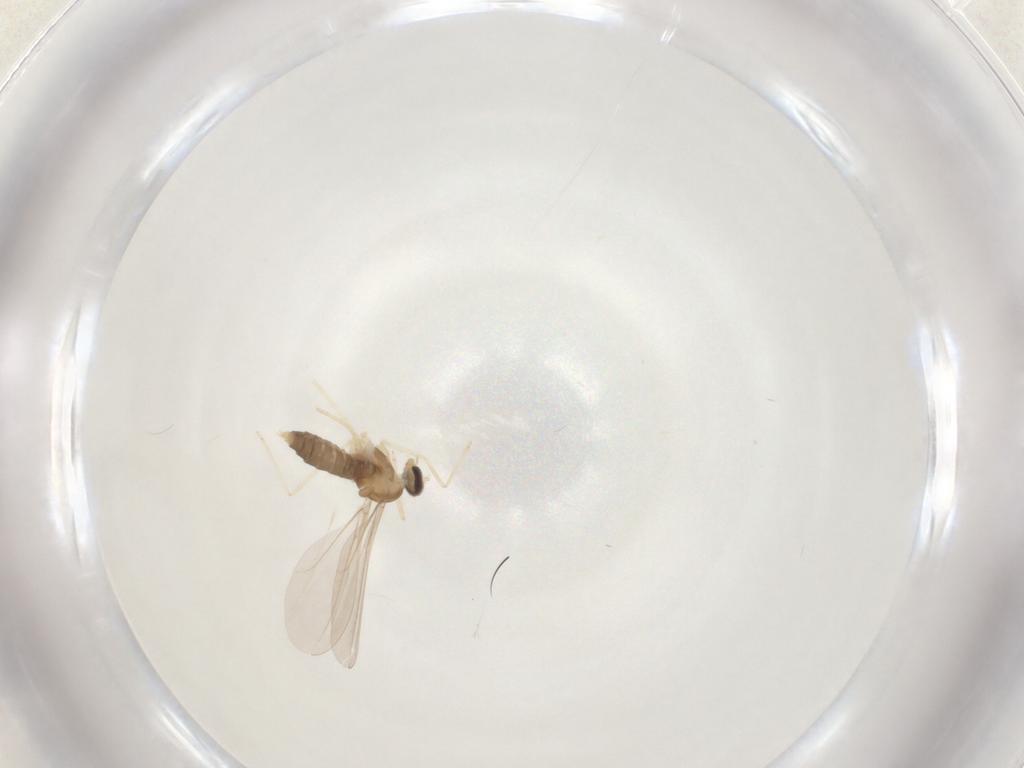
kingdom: Animalia
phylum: Arthropoda
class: Insecta
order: Diptera
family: Cecidomyiidae
